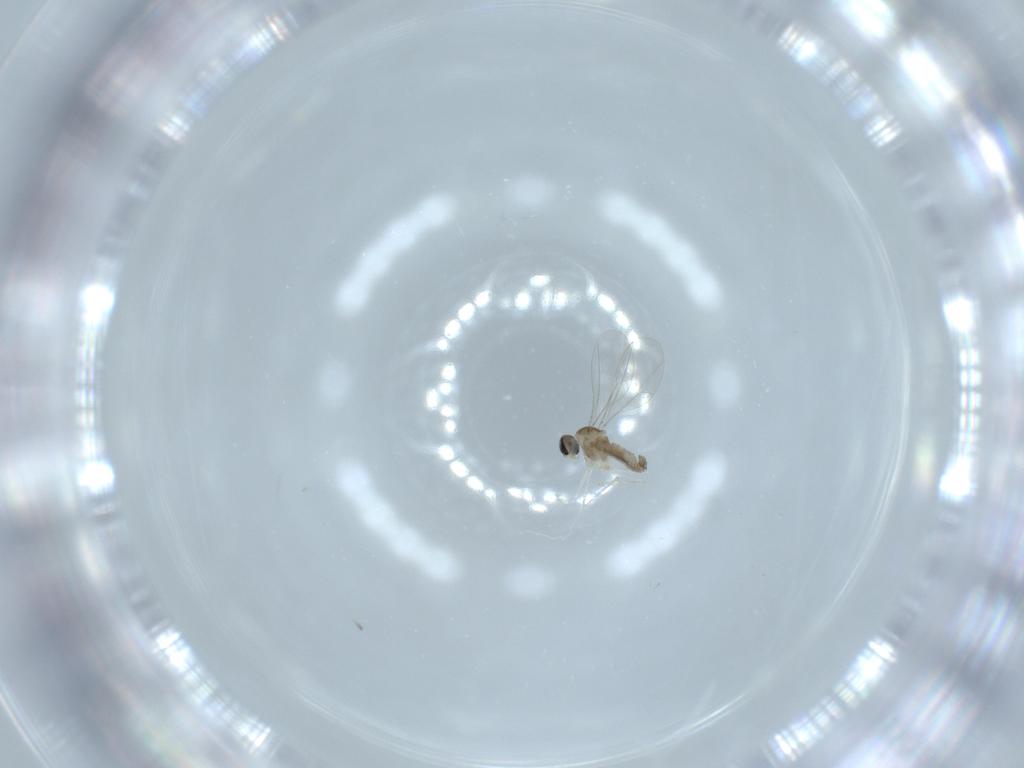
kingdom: Animalia
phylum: Arthropoda
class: Insecta
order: Diptera
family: Cecidomyiidae
